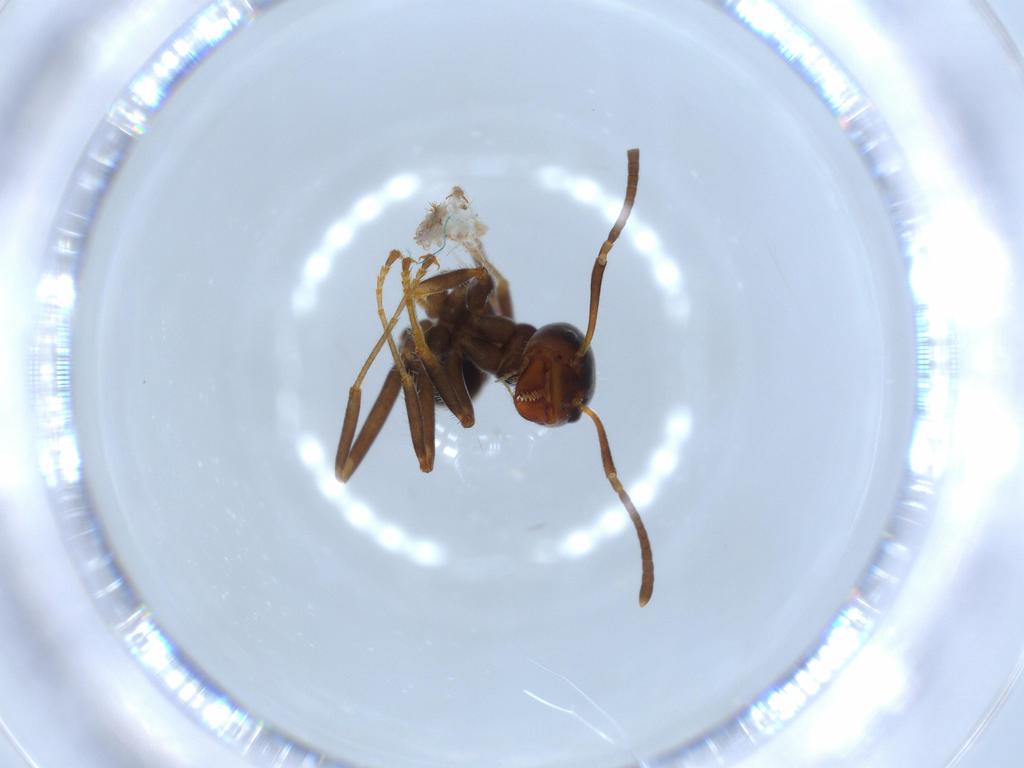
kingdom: Animalia
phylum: Arthropoda
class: Insecta
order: Hymenoptera
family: Formicidae
